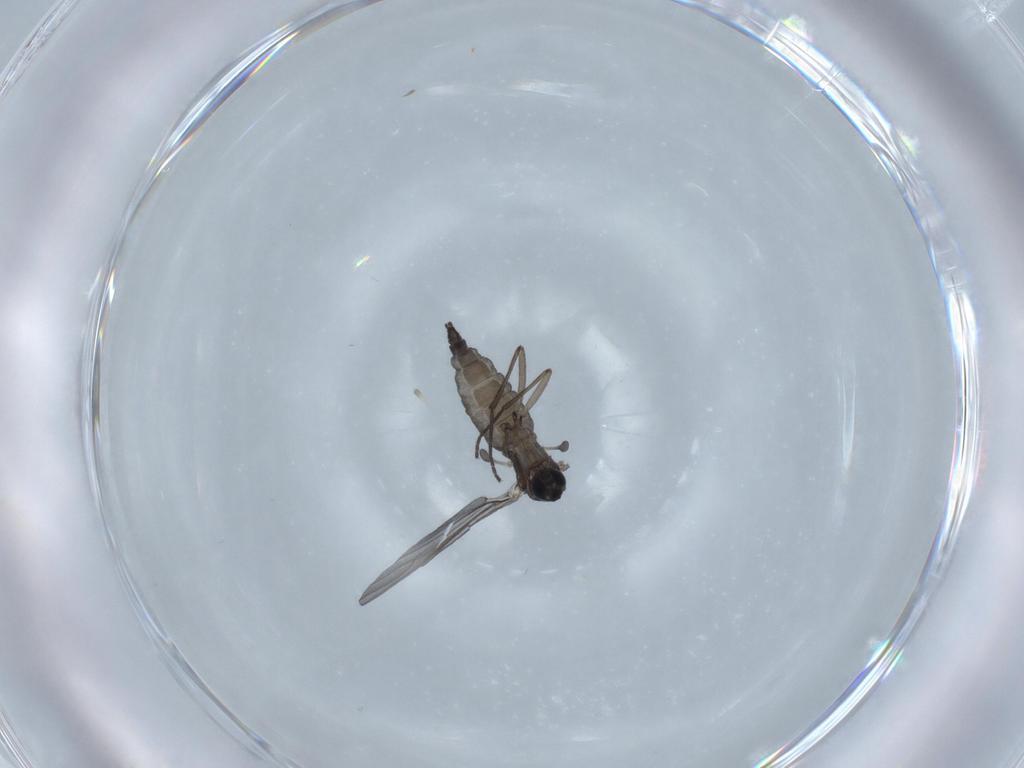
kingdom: Animalia
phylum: Arthropoda
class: Insecta
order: Diptera
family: Sciaridae
